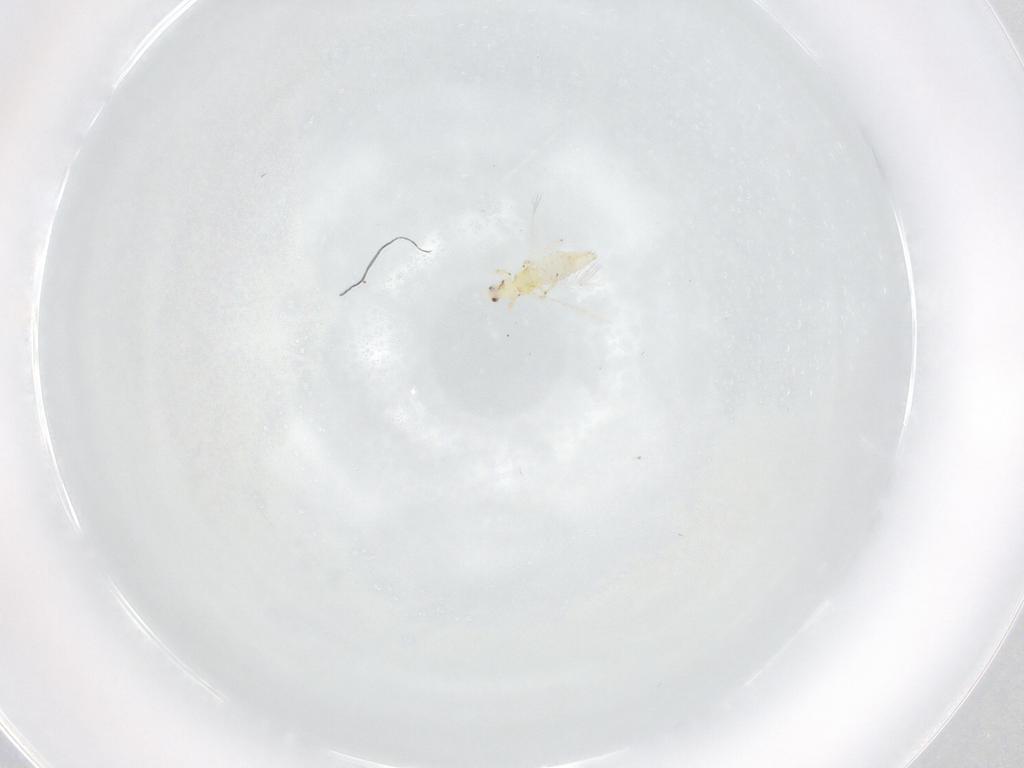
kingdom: Animalia
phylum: Arthropoda
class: Insecta
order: Thysanoptera
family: Thripidae
